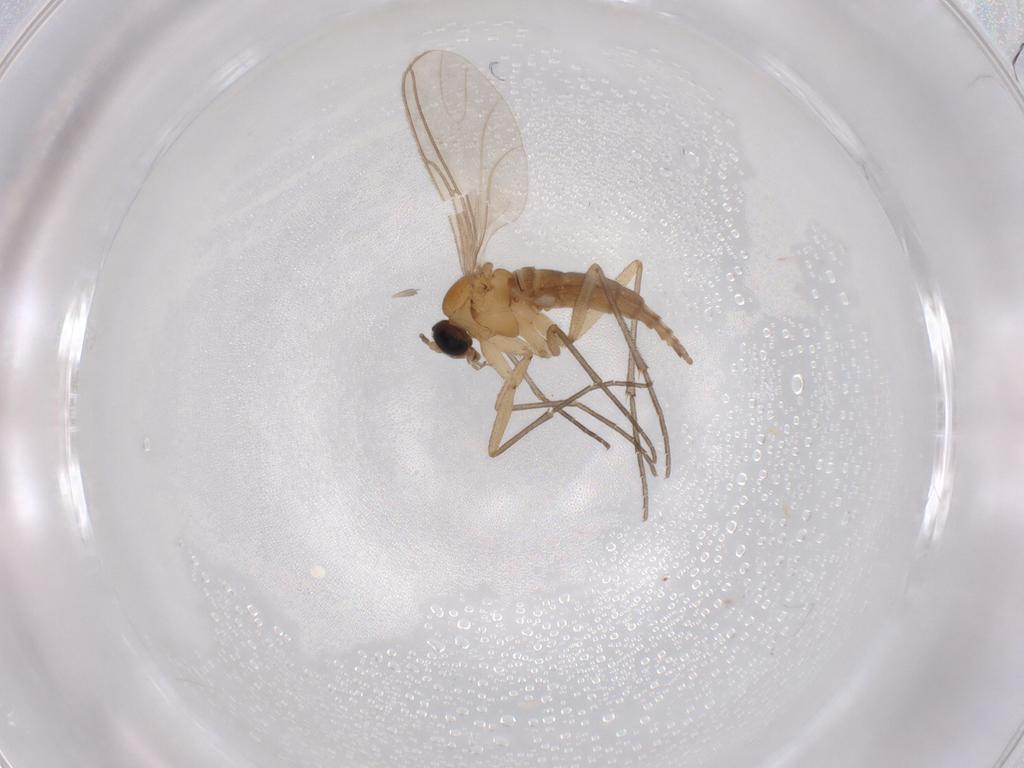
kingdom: Animalia
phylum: Arthropoda
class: Insecta
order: Diptera
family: Sciaridae
